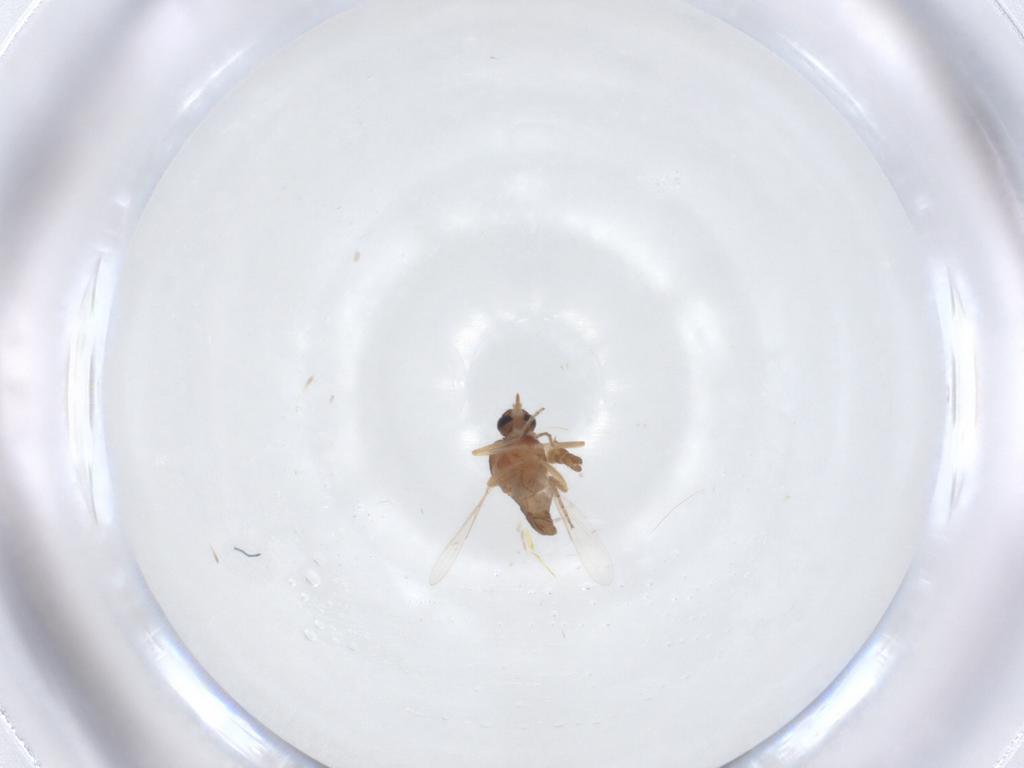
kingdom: Animalia
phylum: Arthropoda
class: Insecta
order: Diptera
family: Ceratopogonidae
